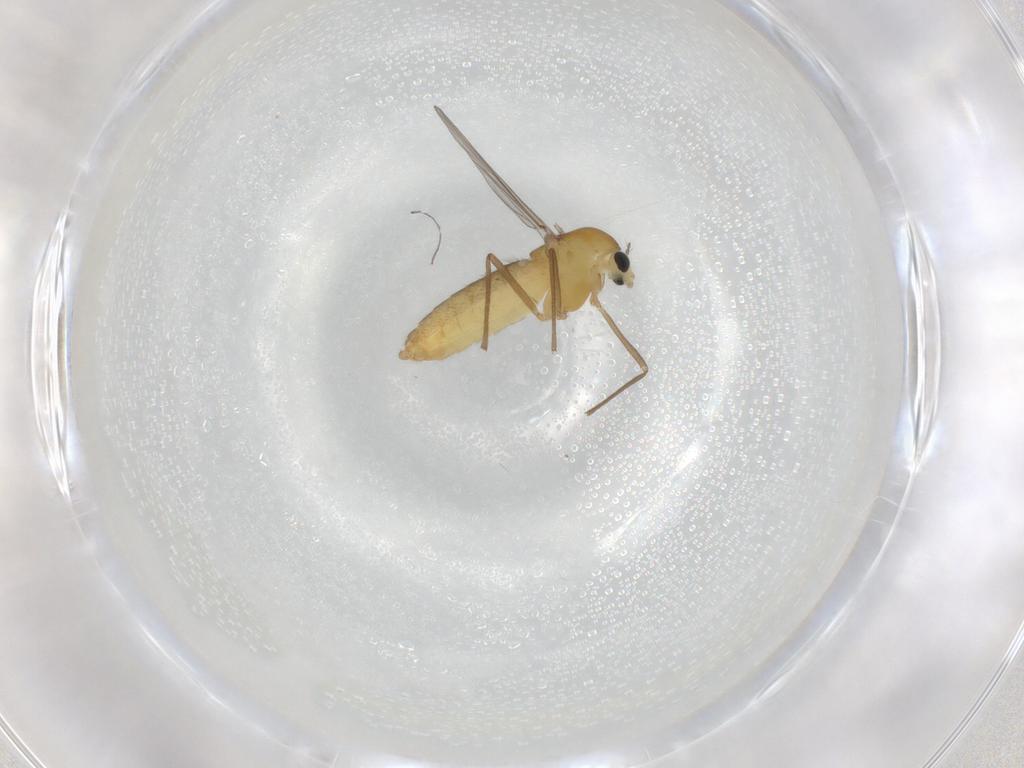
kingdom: Animalia
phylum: Arthropoda
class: Insecta
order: Diptera
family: Chironomidae
